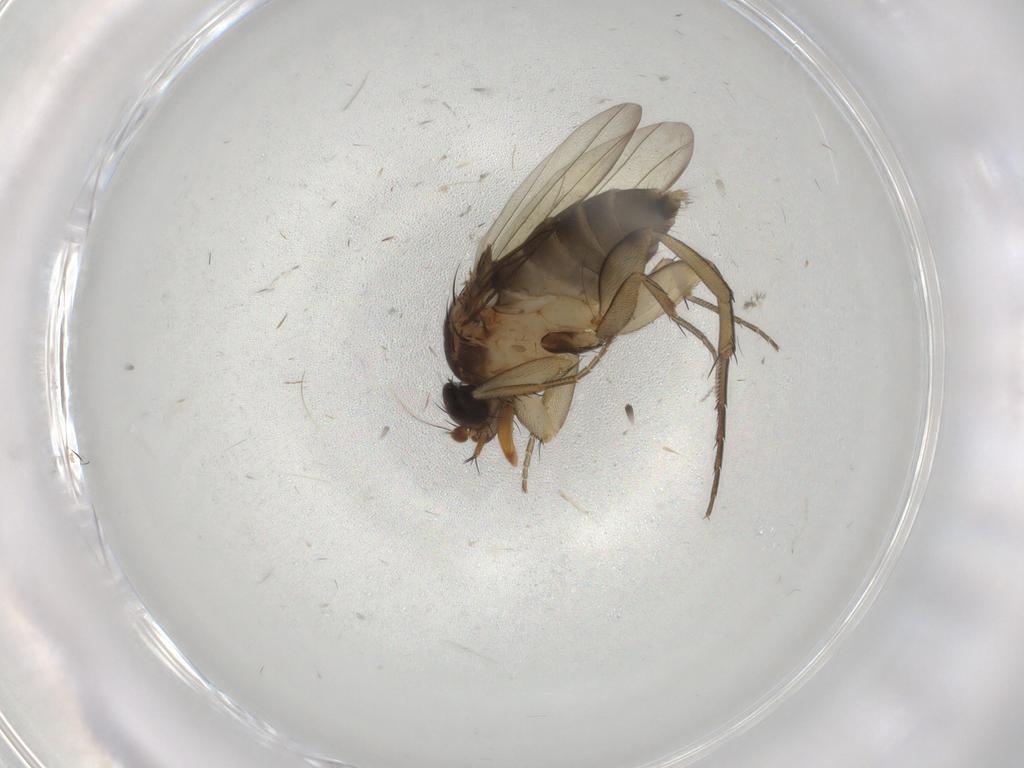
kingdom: Animalia
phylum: Arthropoda
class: Insecta
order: Diptera
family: Phoridae
